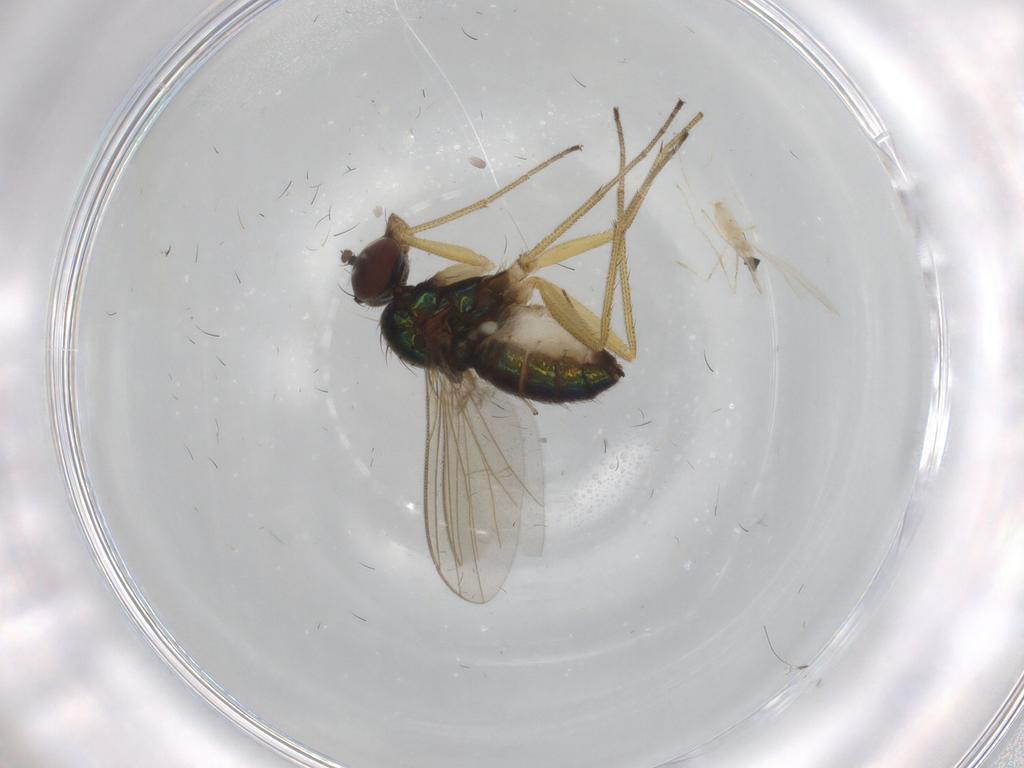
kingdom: Animalia
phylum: Arthropoda
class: Insecta
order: Diptera
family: Dolichopodidae
